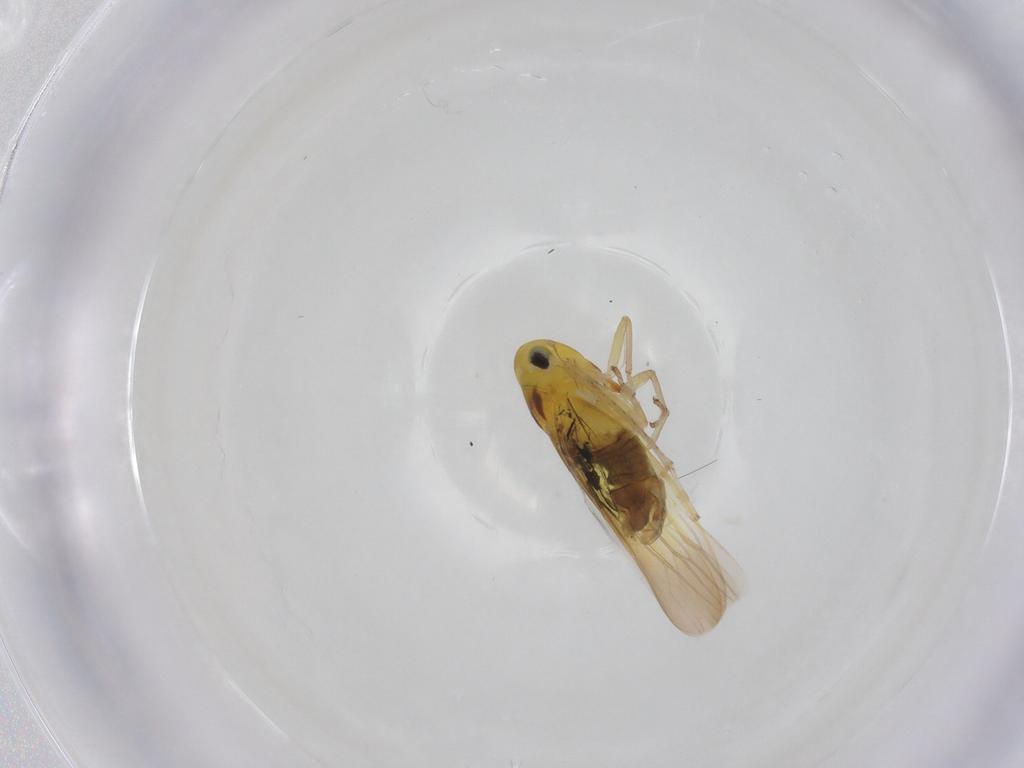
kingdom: Animalia
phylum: Arthropoda
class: Insecta
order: Hemiptera
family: Cicadellidae
